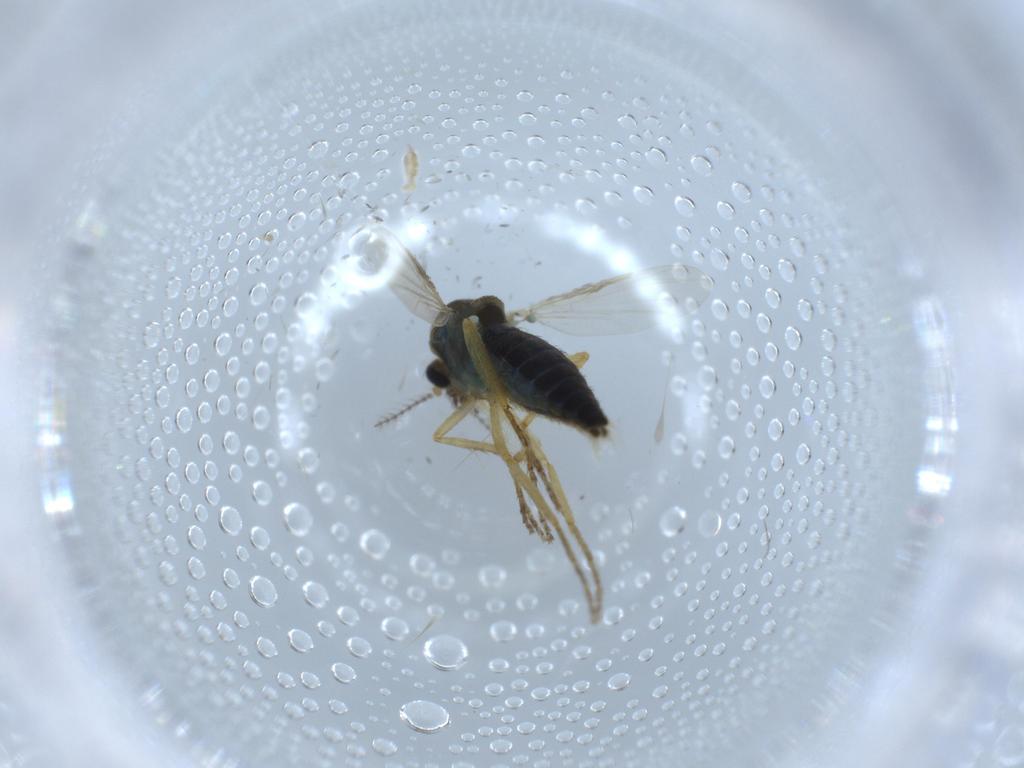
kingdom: Animalia
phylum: Arthropoda
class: Insecta
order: Diptera
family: Ceratopogonidae
